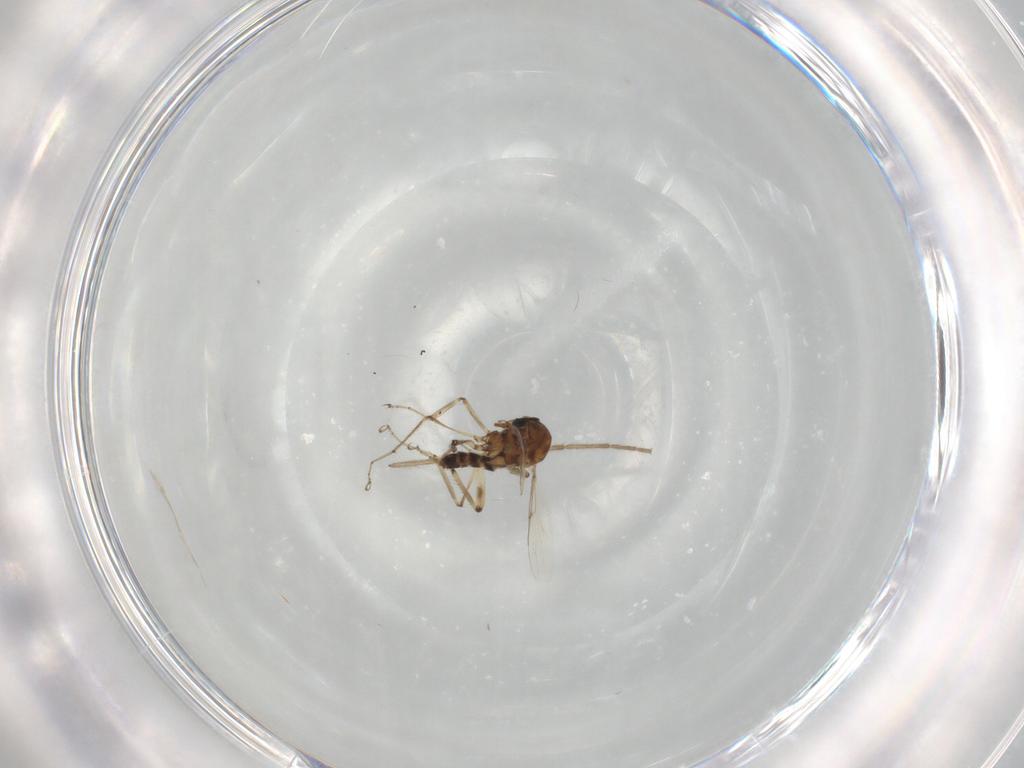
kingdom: Animalia
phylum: Arthropoda
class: Insecta
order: Diptera
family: Ceratopogonidae
